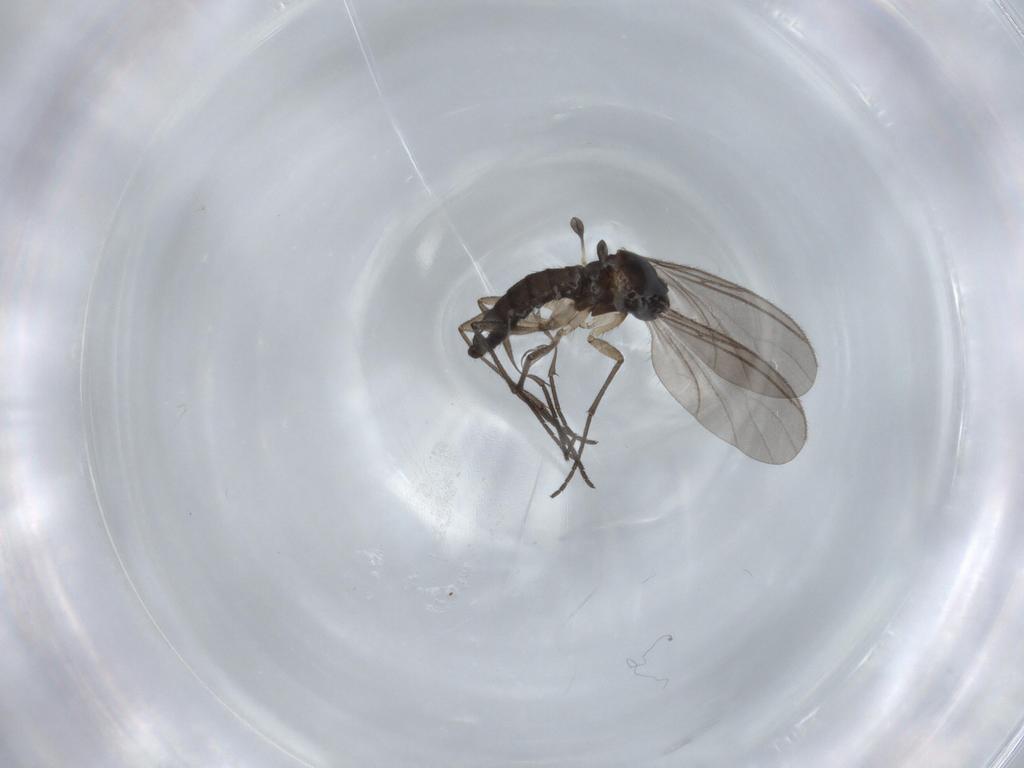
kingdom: Animalia
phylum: Arthropoda
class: Insecta
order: Diptera
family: Sciaridae
